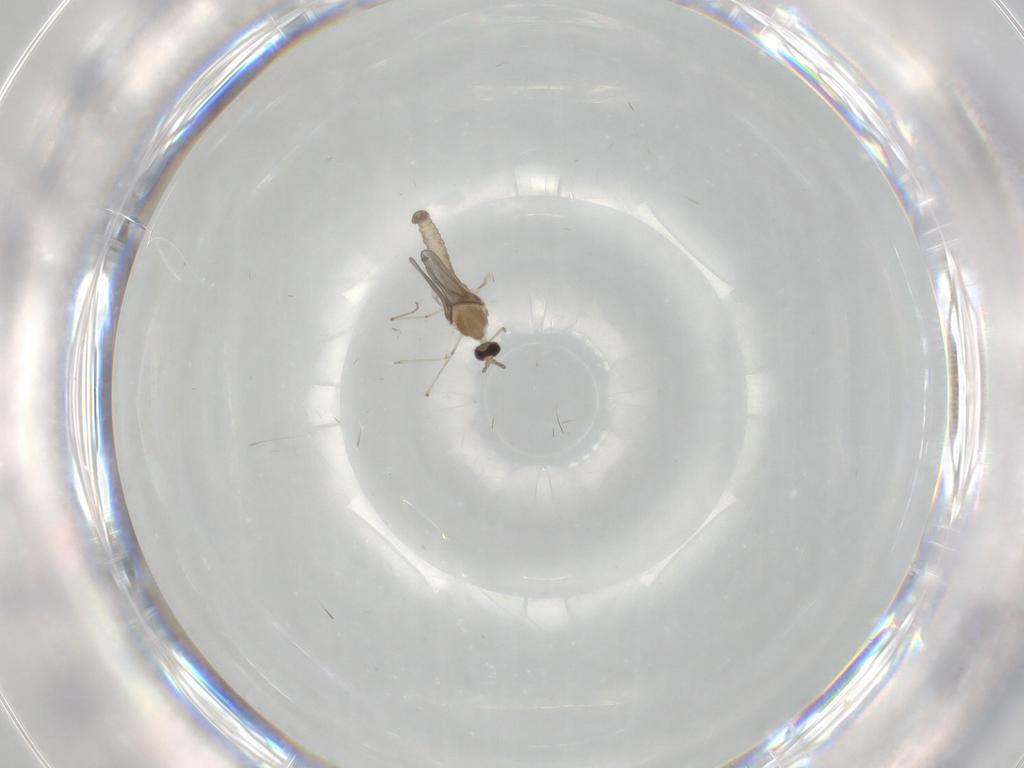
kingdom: Animalia
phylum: Arthropoda
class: Insecta
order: Diptera
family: Chironomidae
